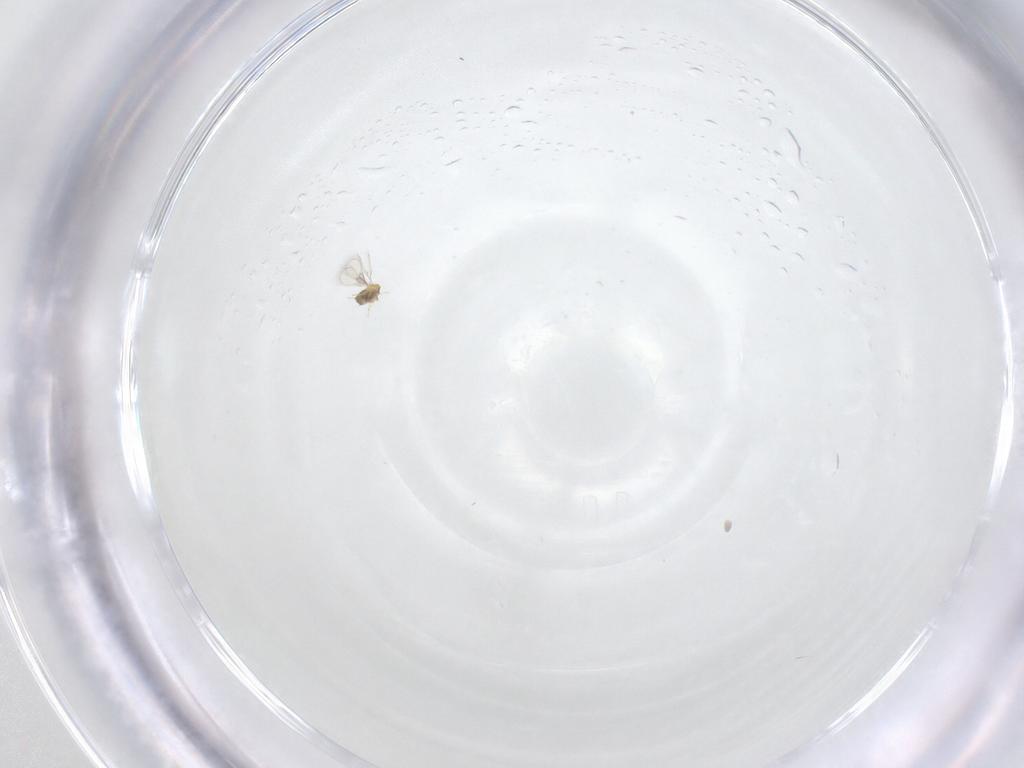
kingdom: Animalia
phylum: Arthropoda
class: Insecta
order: Hymenoptera
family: Trichogrammatidae
